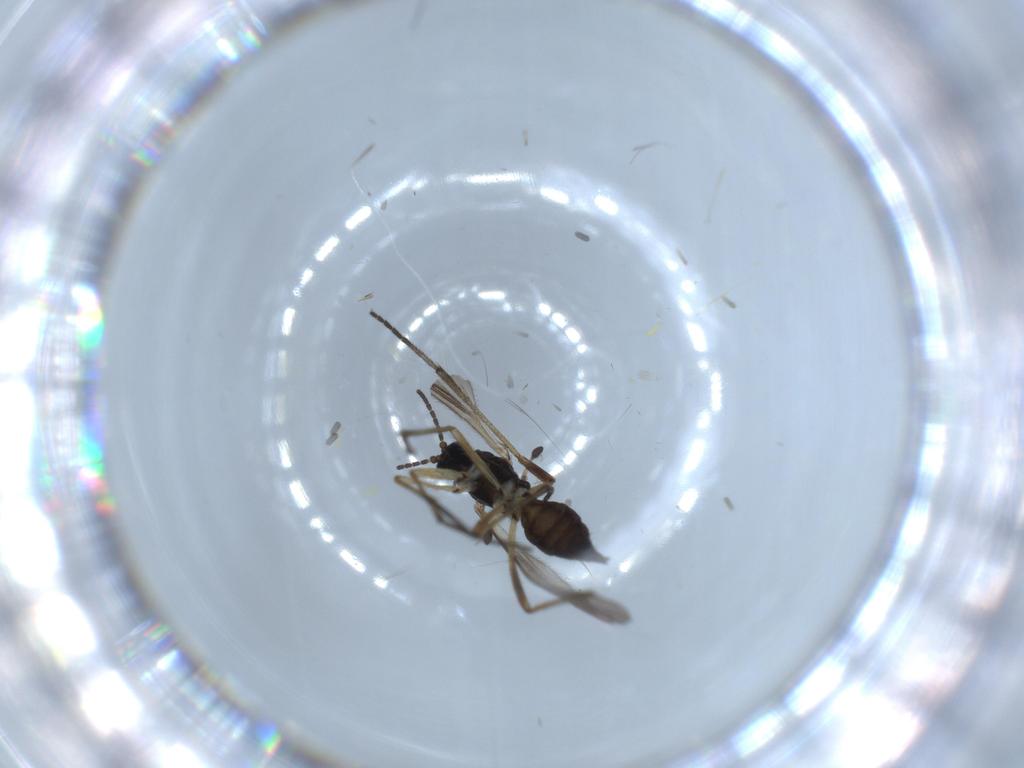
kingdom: Animalia
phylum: Arthropoda
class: Insecta
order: Diptera
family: Sciaridae
